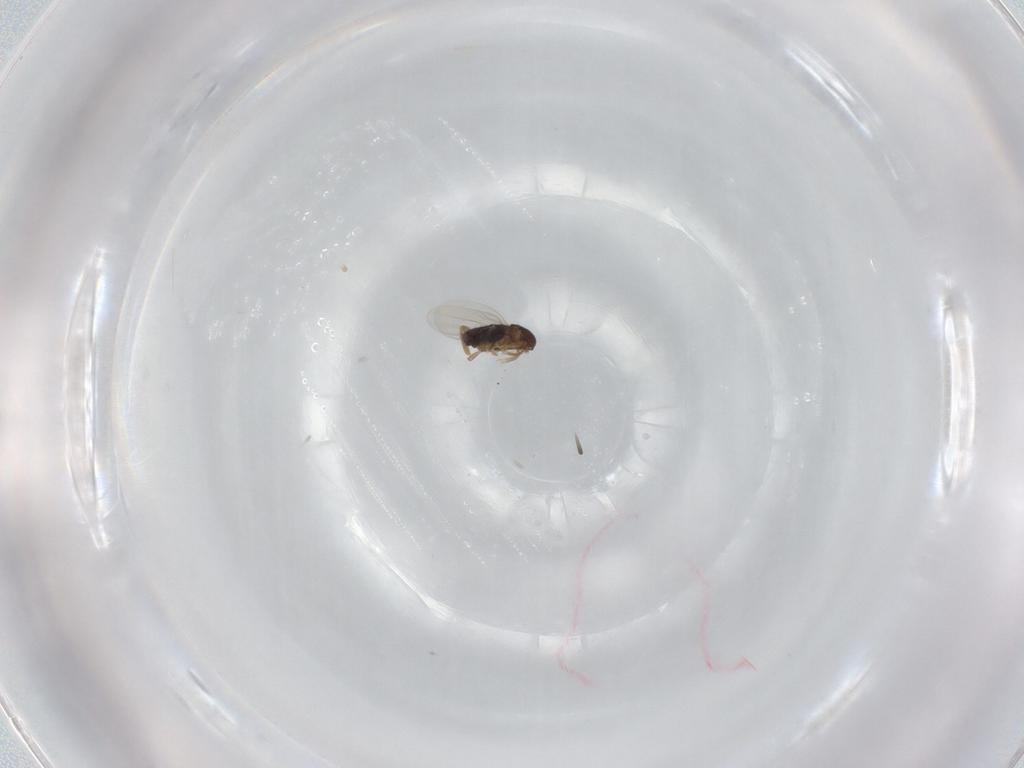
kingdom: Animalia
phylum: Arthropoda
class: Insecta
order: Diptera
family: Phoridae
